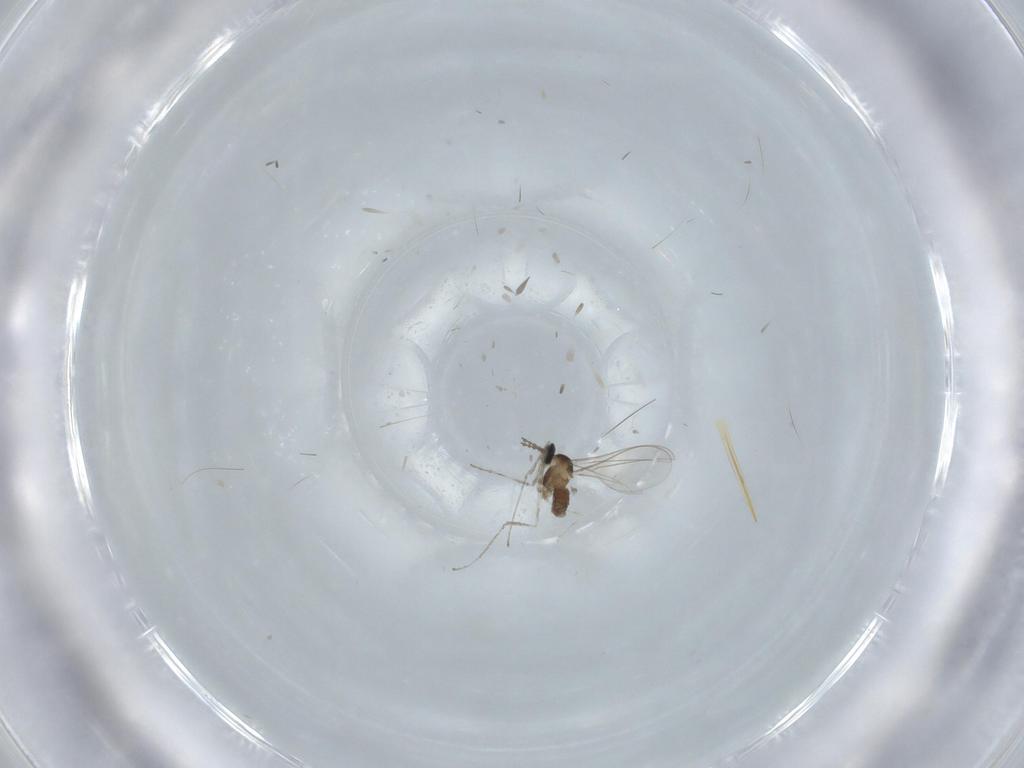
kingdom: Animalia
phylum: Arthropoda
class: Insecta
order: Diptera
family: Cecidomyiidae
